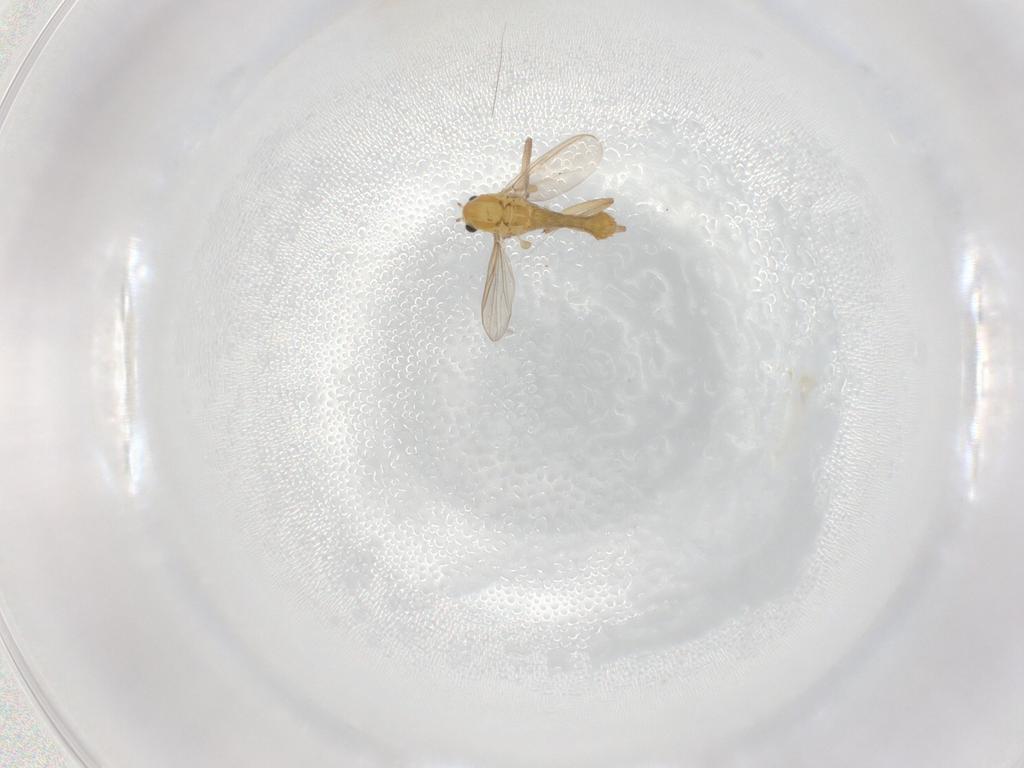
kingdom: Animalia
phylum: Arthropoda
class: Insecta
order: Diptera
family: Chironomidae
